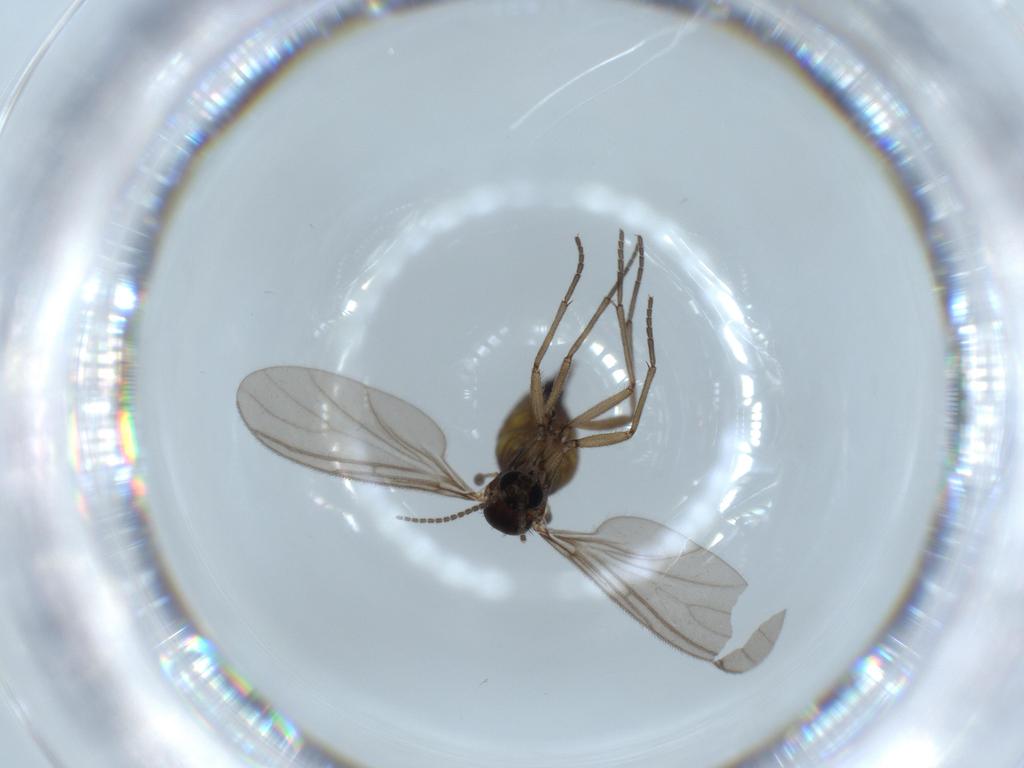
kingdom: Animalia
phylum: Arthropoda
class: Insecta
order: Diptera
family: Sciaridae
